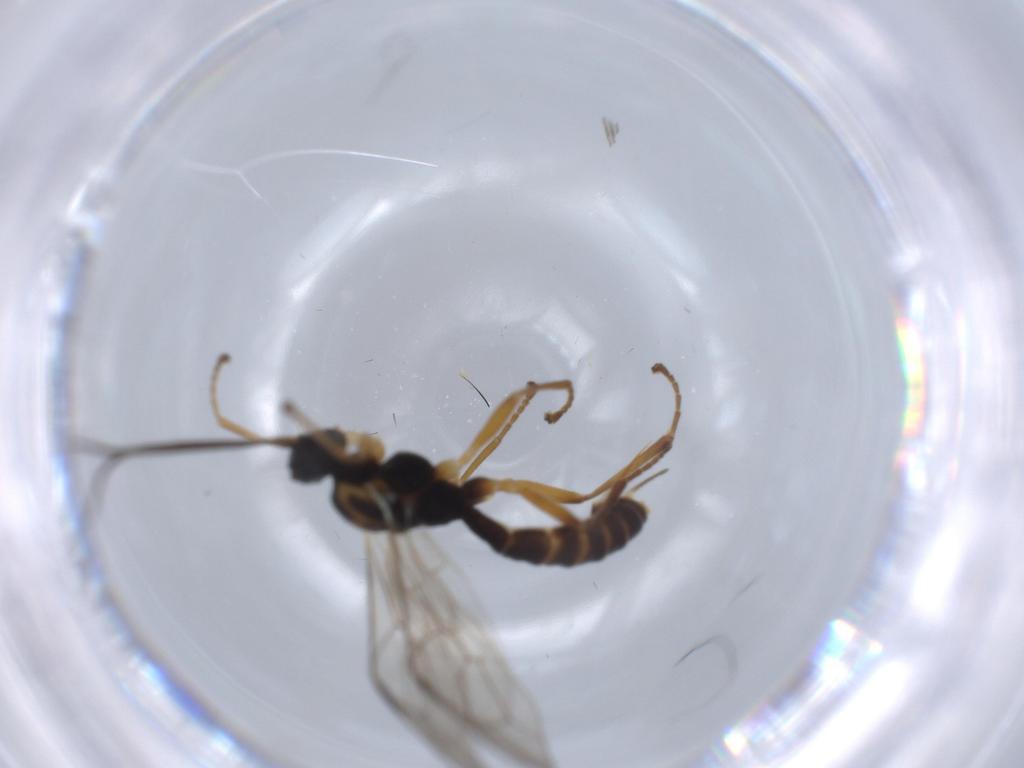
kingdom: Animalia
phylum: Arthropoda
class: Insecta
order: Hymenoptera
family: Ichneumonidae
